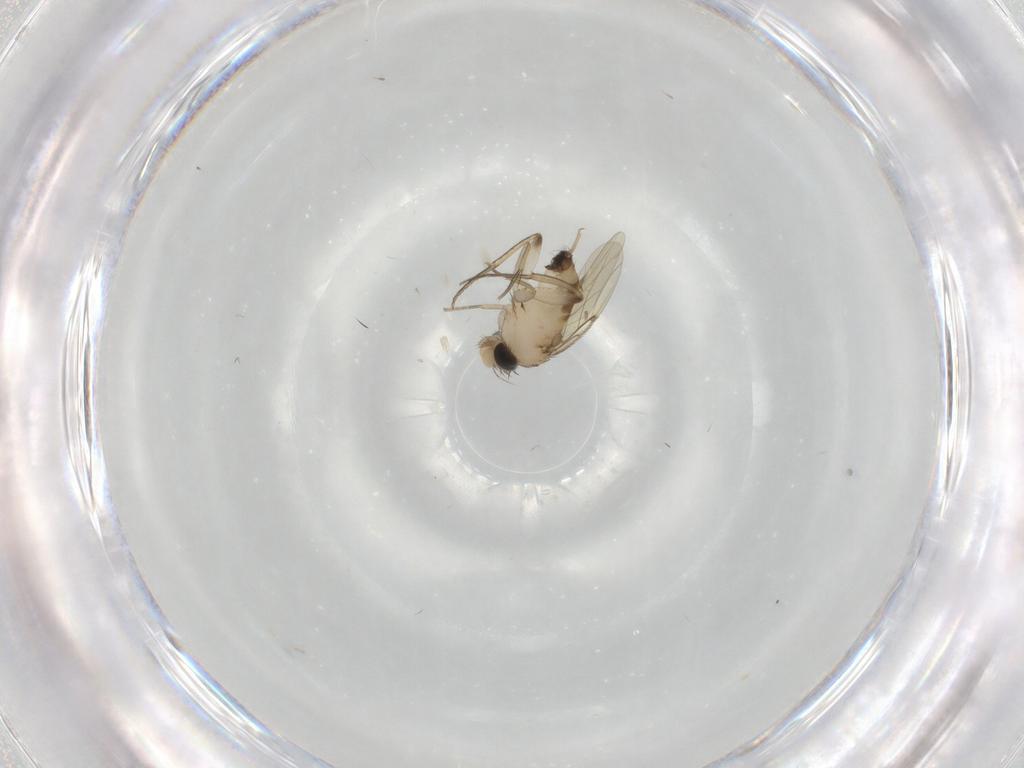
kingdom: Animalia
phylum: Arthropoda
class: Insecta
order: Diptera
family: Phoridae
